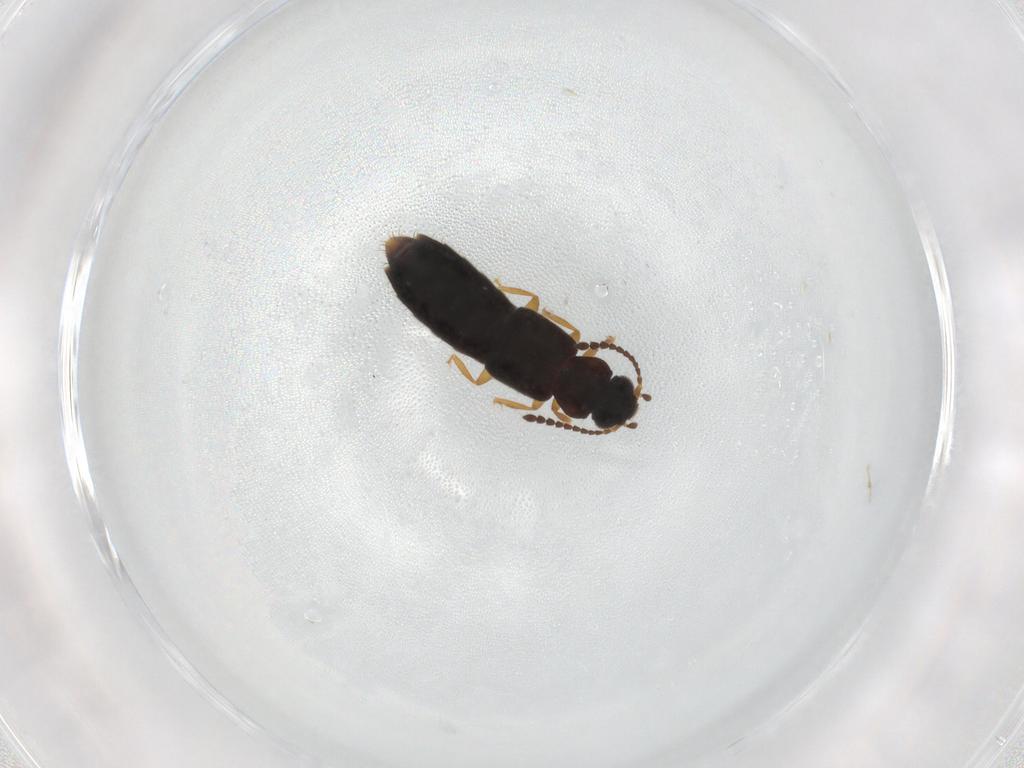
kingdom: Animalia
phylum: Arthropoda
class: Insecta
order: Coleoptera
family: Staphylinidae
